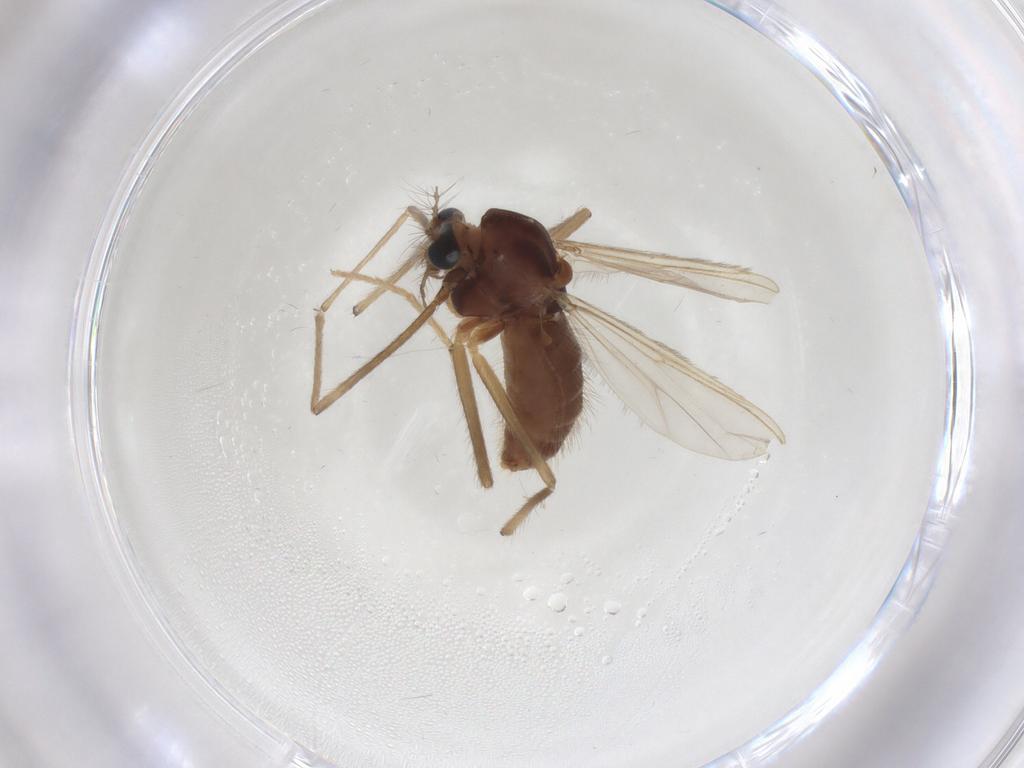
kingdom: Animalia
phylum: Arthropoda
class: Insecta
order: Diptera
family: Chironomidae
